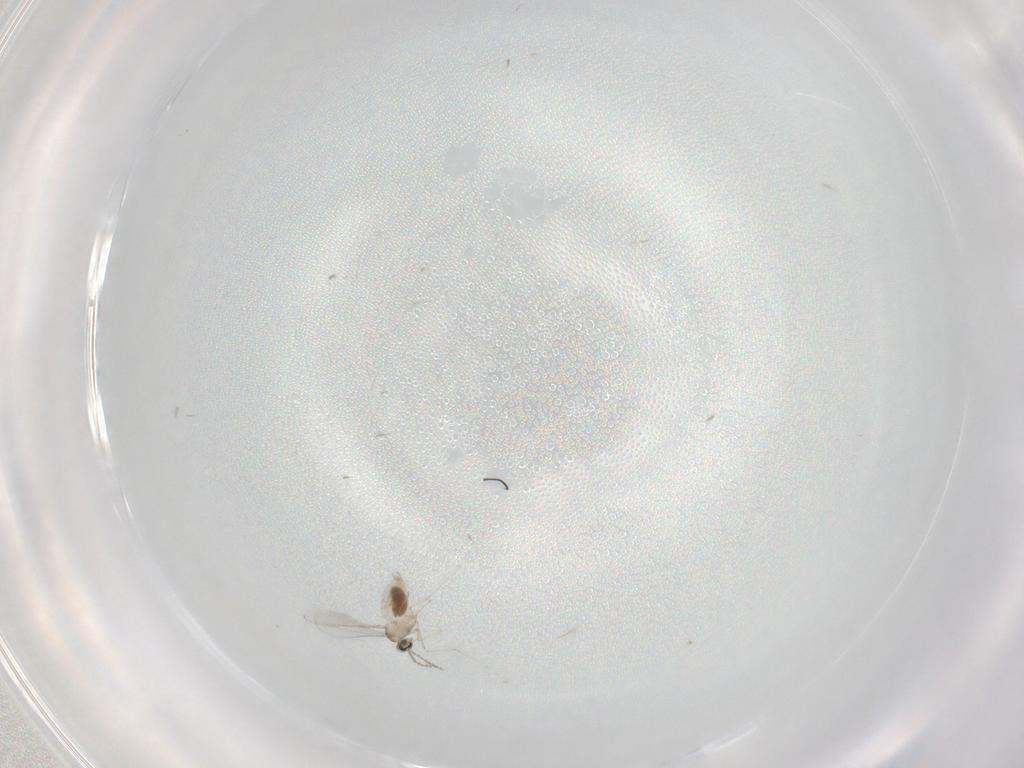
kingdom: Animalia
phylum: Arthropoda
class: Insecta
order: Diptera
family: Cecidomyiidae
